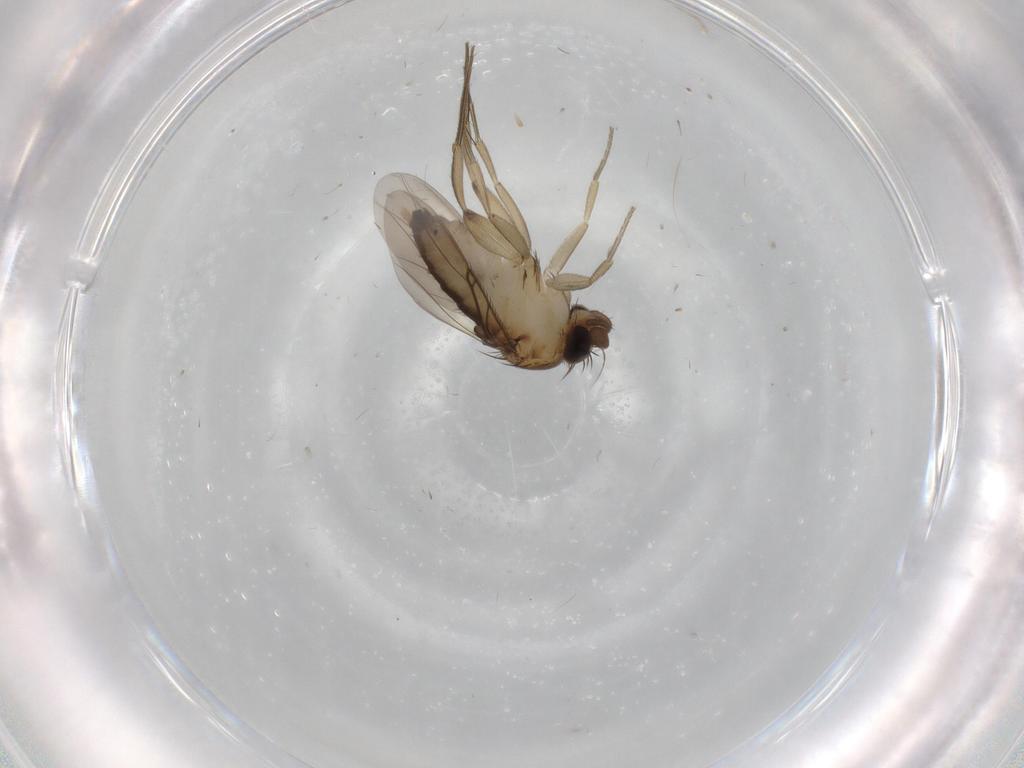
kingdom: Animalia
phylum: Arthropoda
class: Insecta
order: Diptera
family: Phoridae
